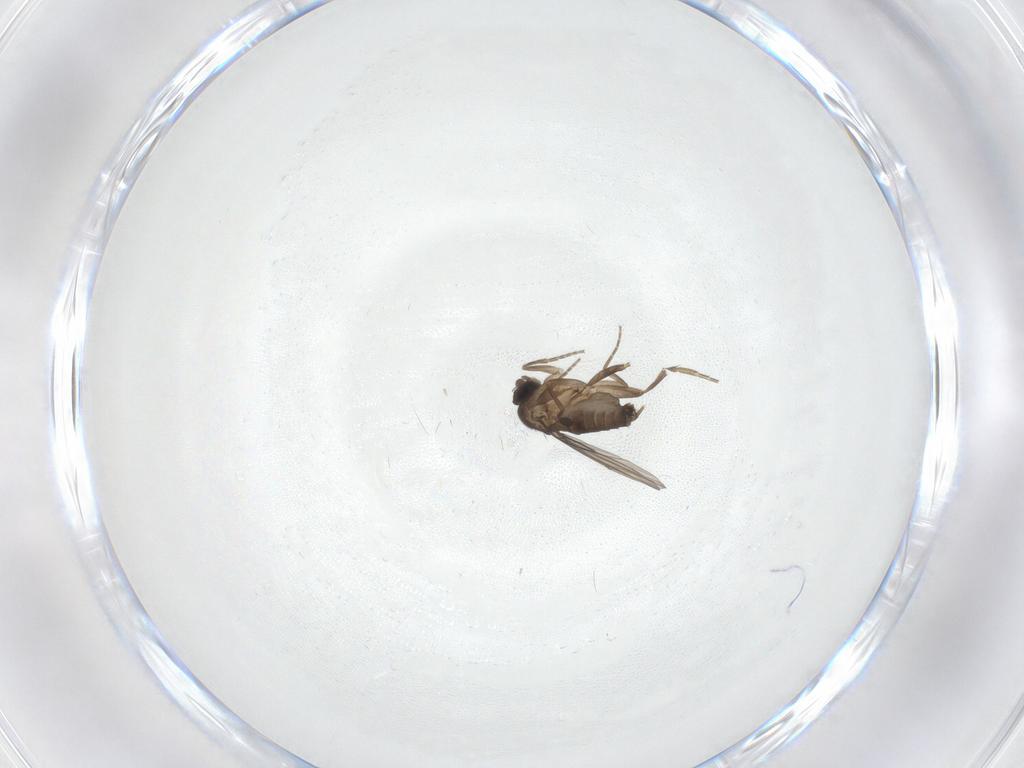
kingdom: Animalia
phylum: Arthropoda
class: Insecta
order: Diptera
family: Phoridae
